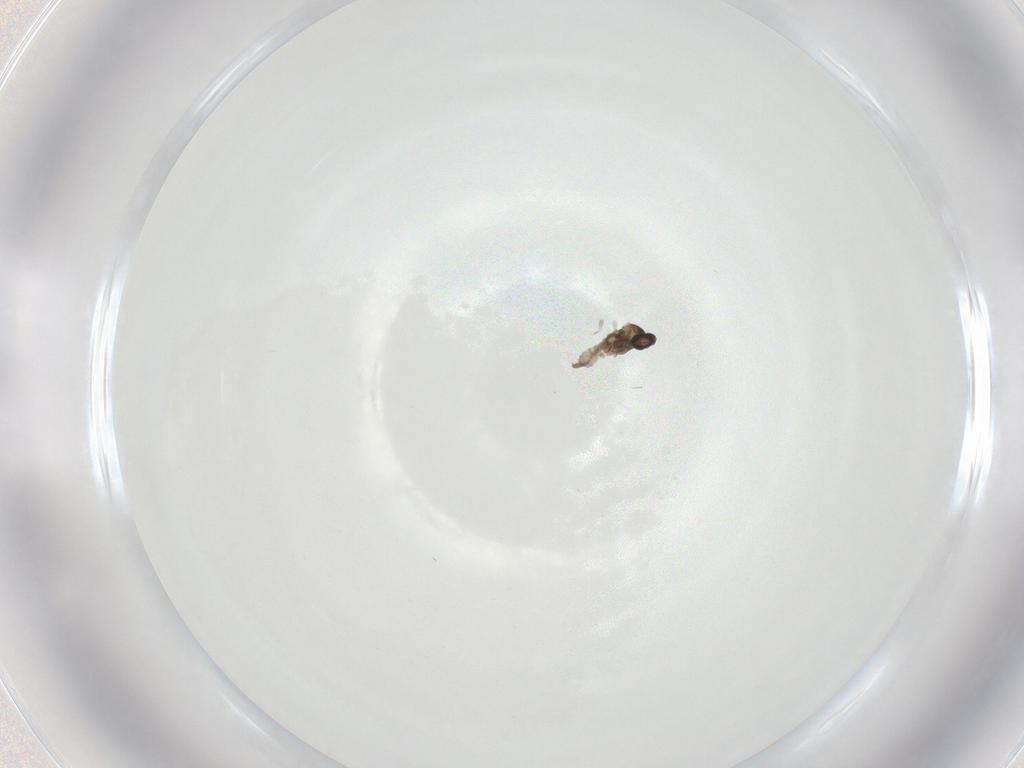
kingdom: Animalia
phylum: Arthropoda
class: Insecta
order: Diptera
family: Cecidomyiidae
